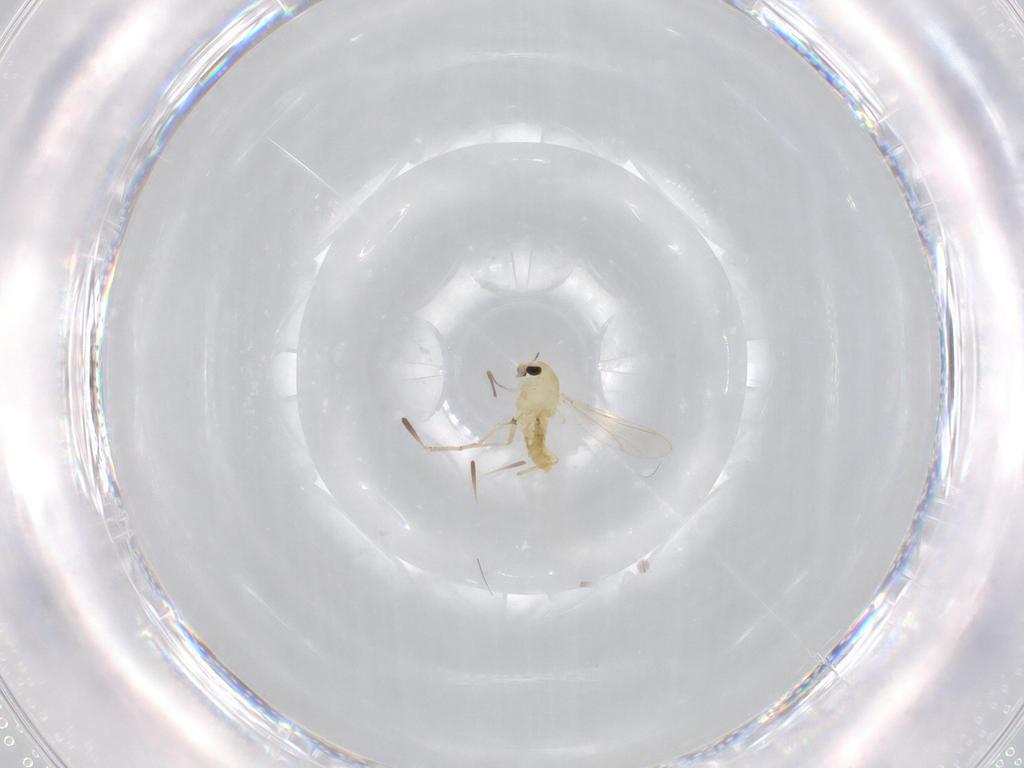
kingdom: Animalia
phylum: Arthropoda
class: Insecta
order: Diptera
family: Chironomidae
